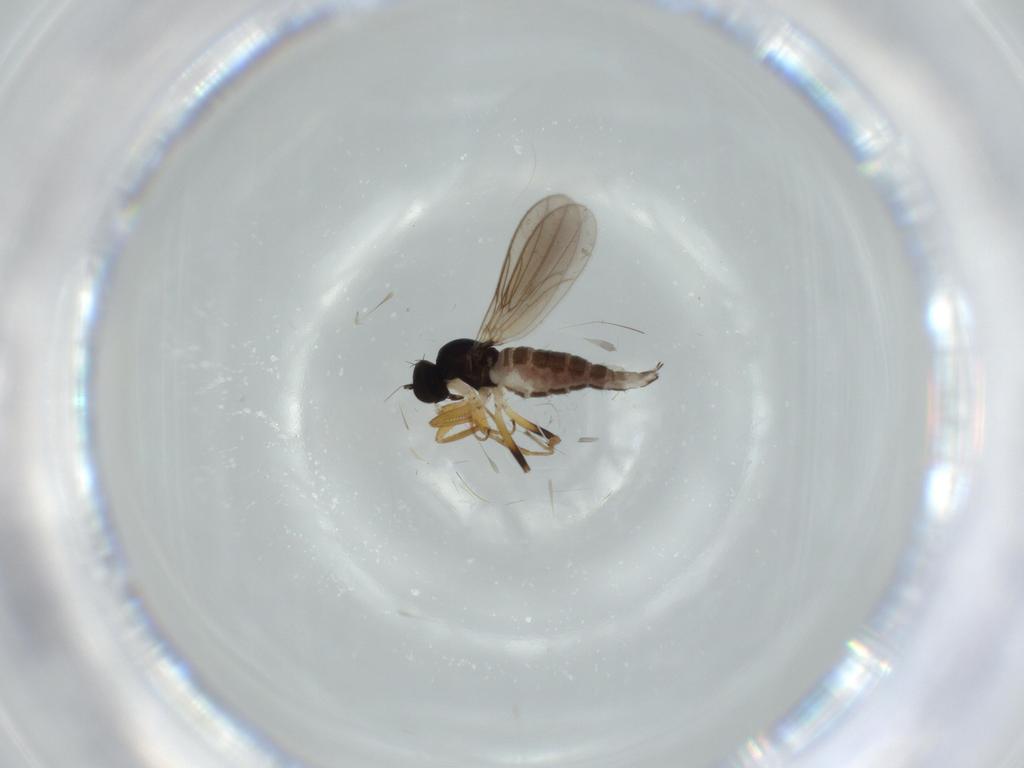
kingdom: Animalia
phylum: Arthropoda
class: Insecta
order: Diptera
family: Hybotidae
